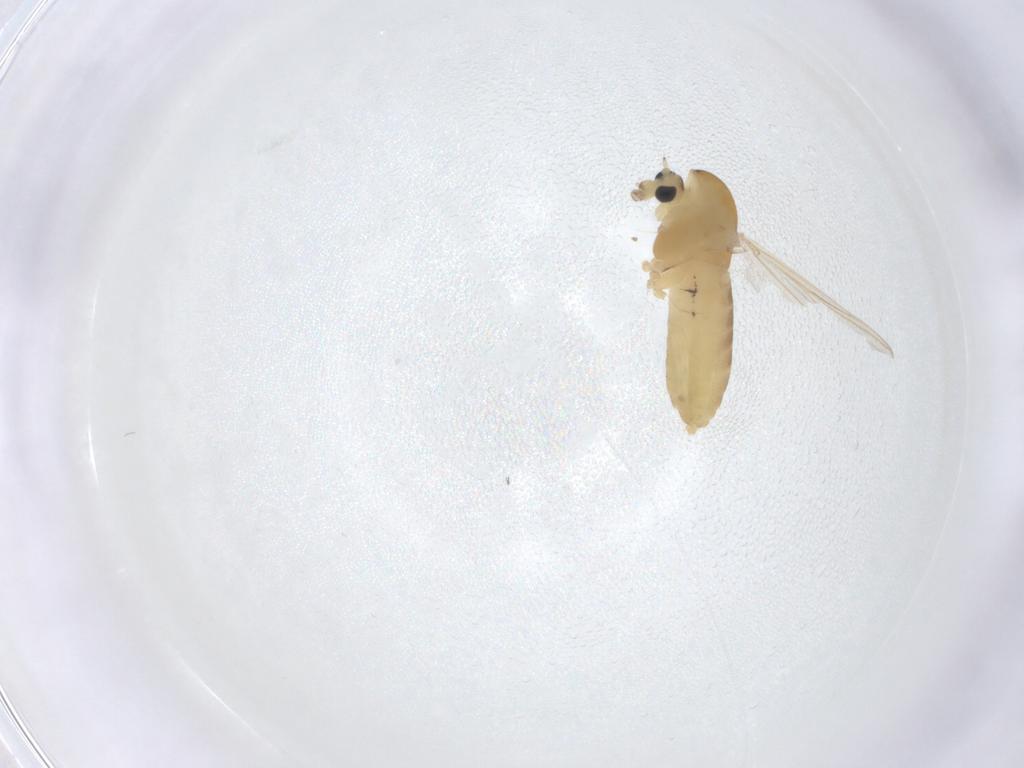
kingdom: Animalia
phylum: Arthropoda
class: Insecta
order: Diptera
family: Chironomidae
